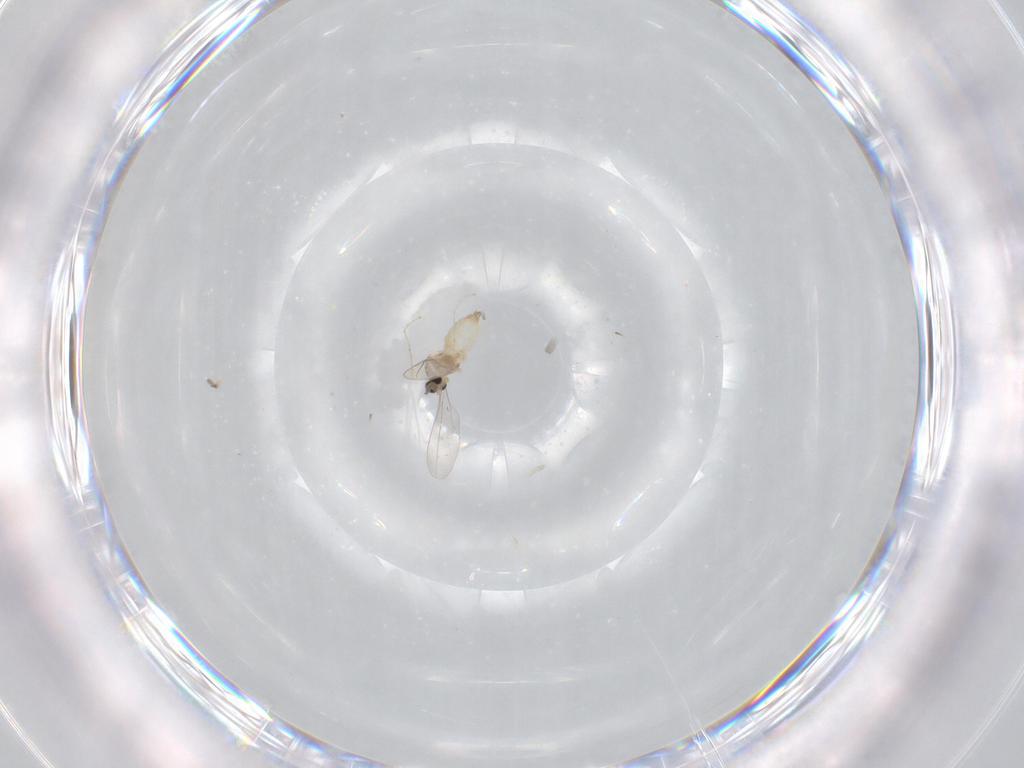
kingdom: Animalia
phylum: Arthropoda
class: Insecta
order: Diptera
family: Cecidomyiidae
